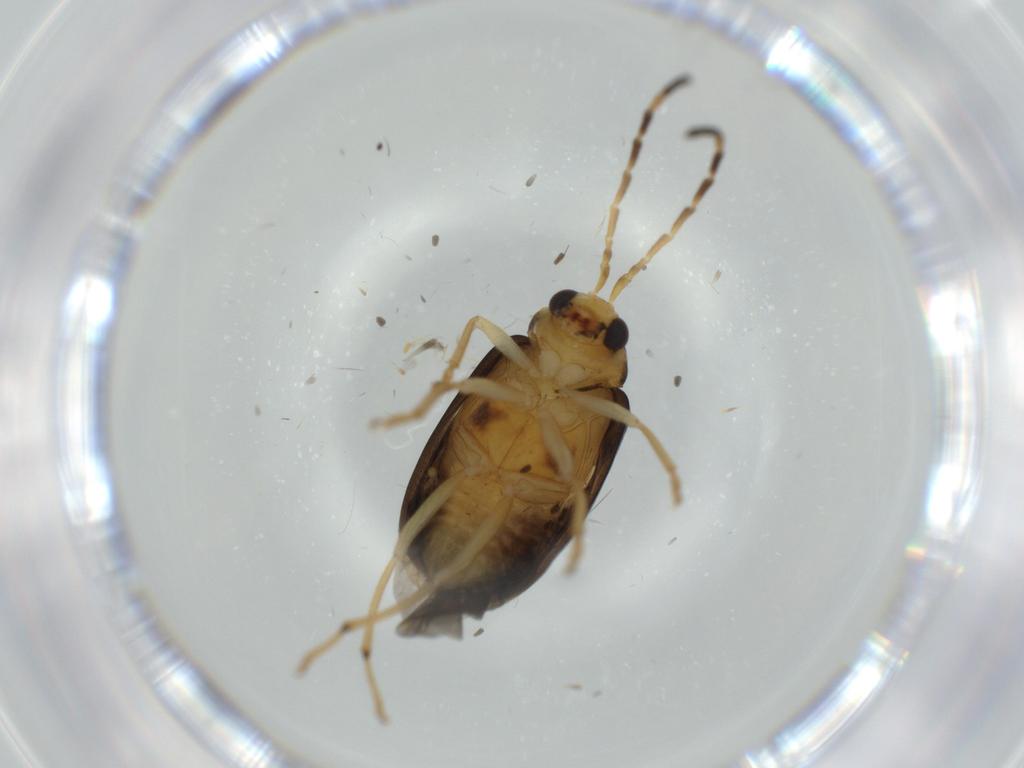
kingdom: Animalia
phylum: Arthropoda
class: Insecta
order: Coleoptera
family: Chrysomelidae
